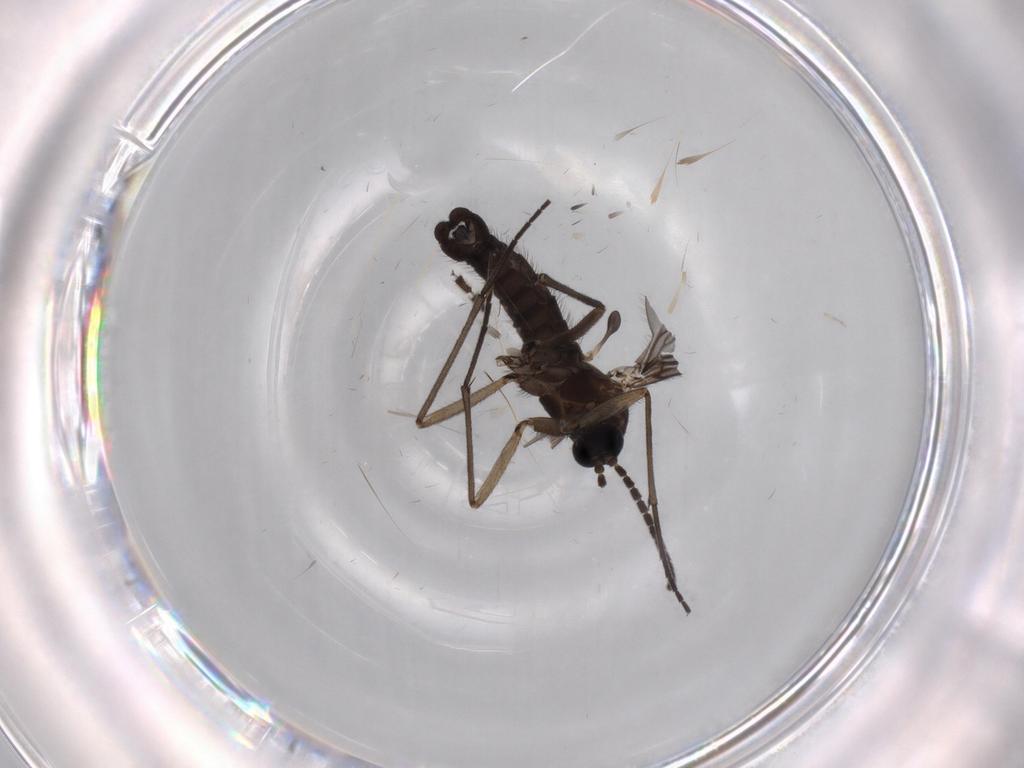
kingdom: Animalia
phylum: Arthropoda
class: Insecta
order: Diptera
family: Sciaridae
